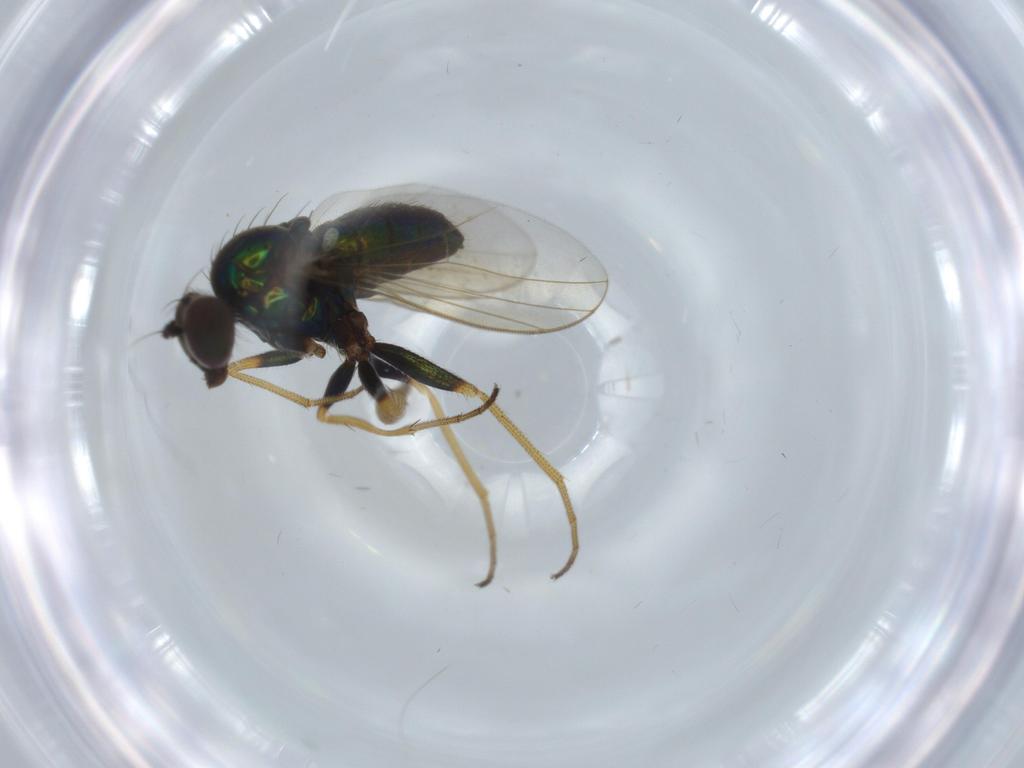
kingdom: Animalia
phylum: Arthropoda
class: Insecta
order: Diptera
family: Dolichopodidae
